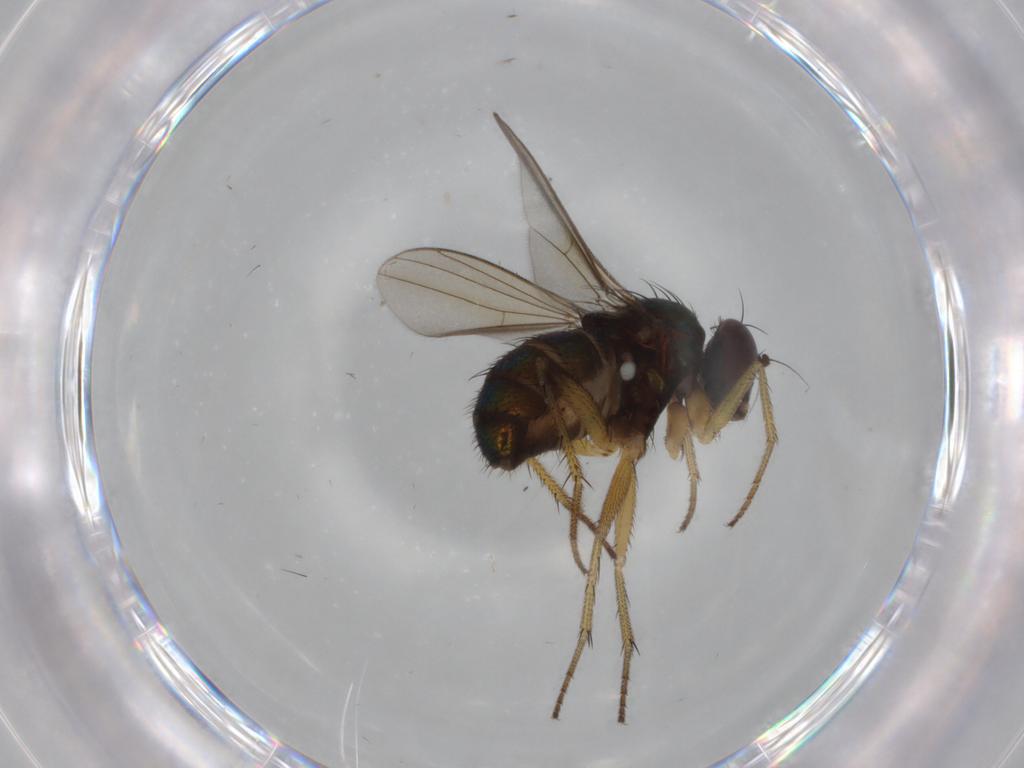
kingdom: Animalia
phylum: Arthropoda
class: Insecta
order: Diptera
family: Dolichopodidae
